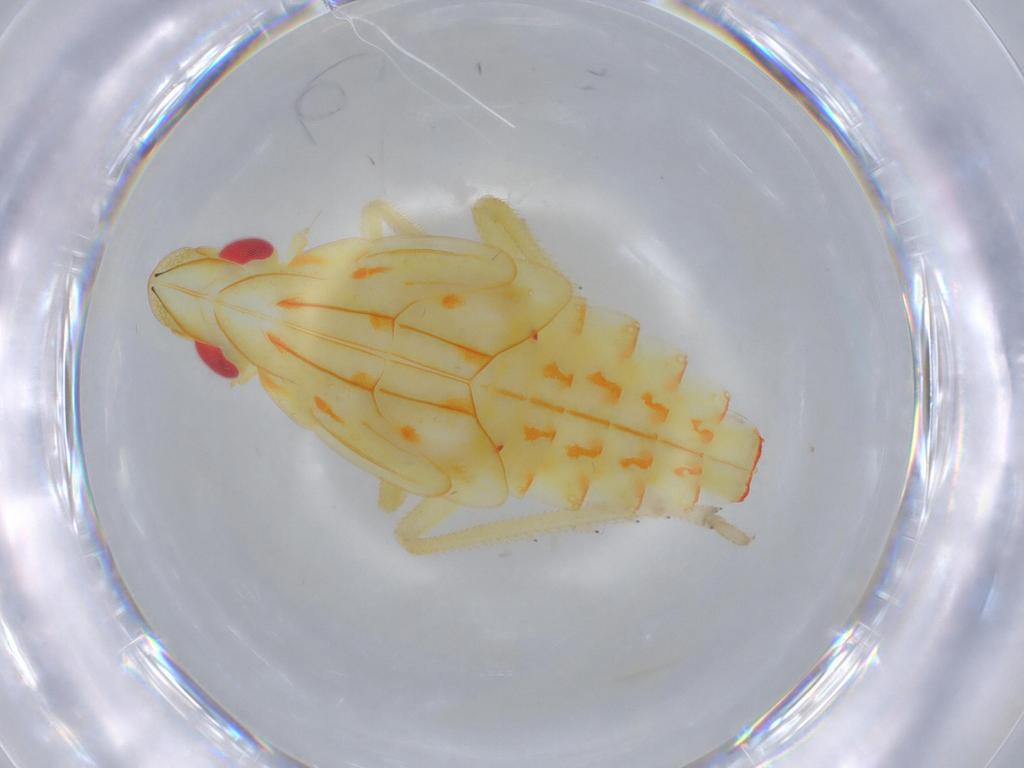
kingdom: Animalia
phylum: Arthropoda
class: Insecta
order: Hemiptera
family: Tropiduchidae
